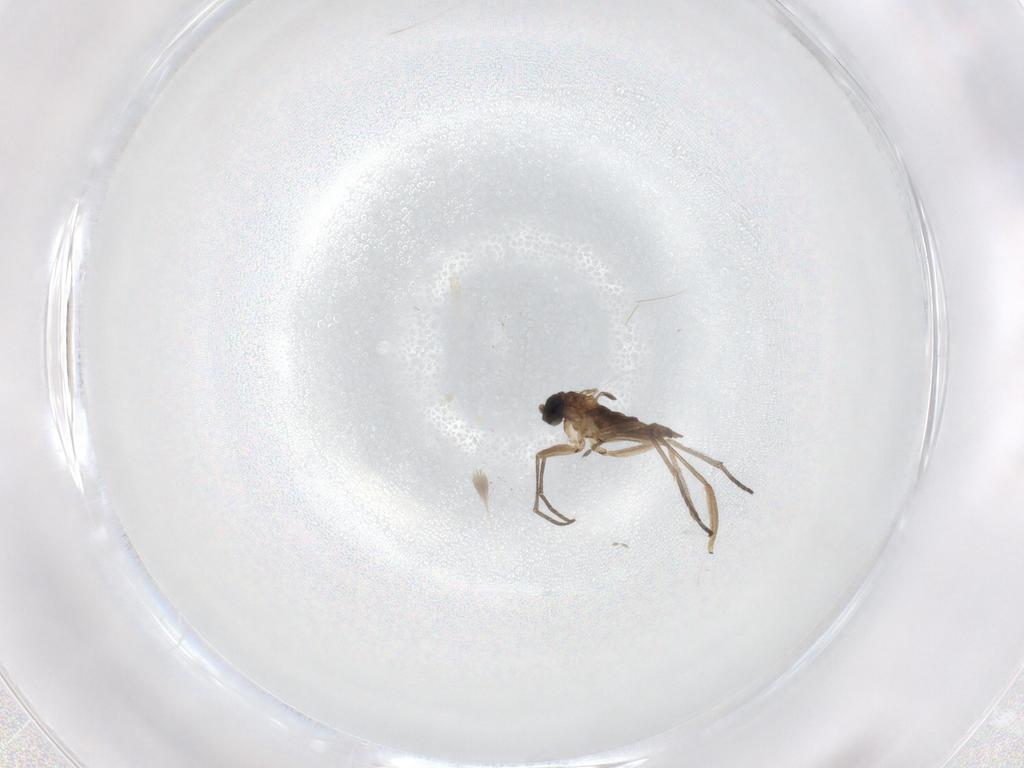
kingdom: Animalia
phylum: Arthropoda
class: Insecta
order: Diptera
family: Sciaridae
